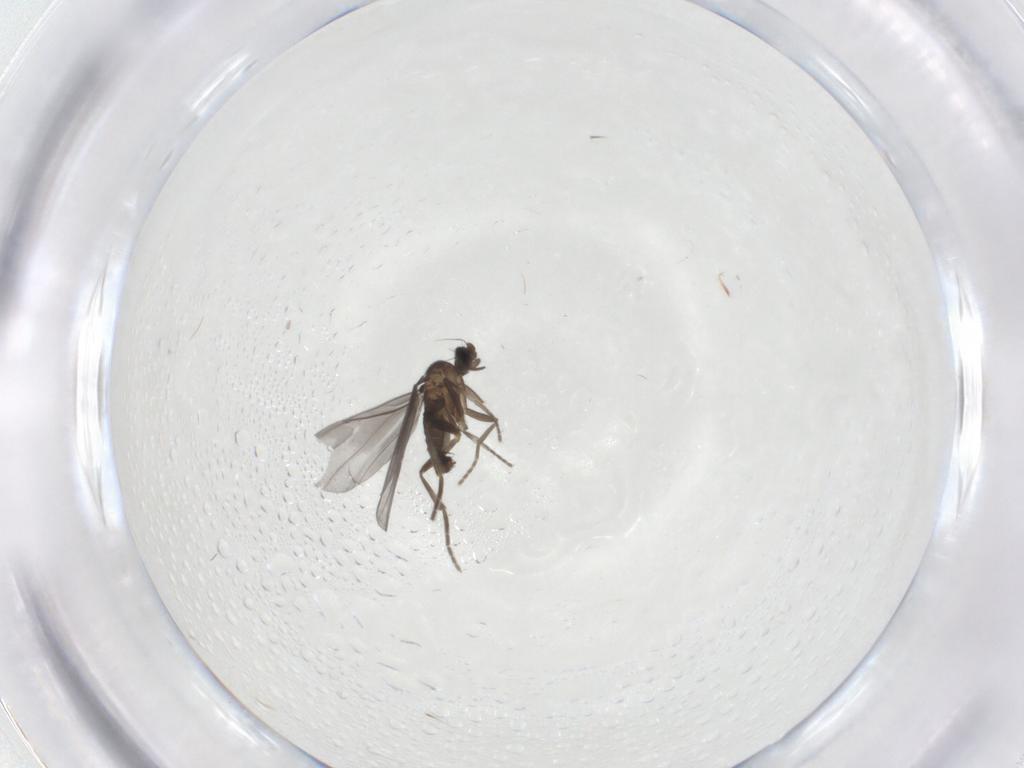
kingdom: Animalia
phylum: Arthropoda
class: Insecta
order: Diptera
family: Phoridae
